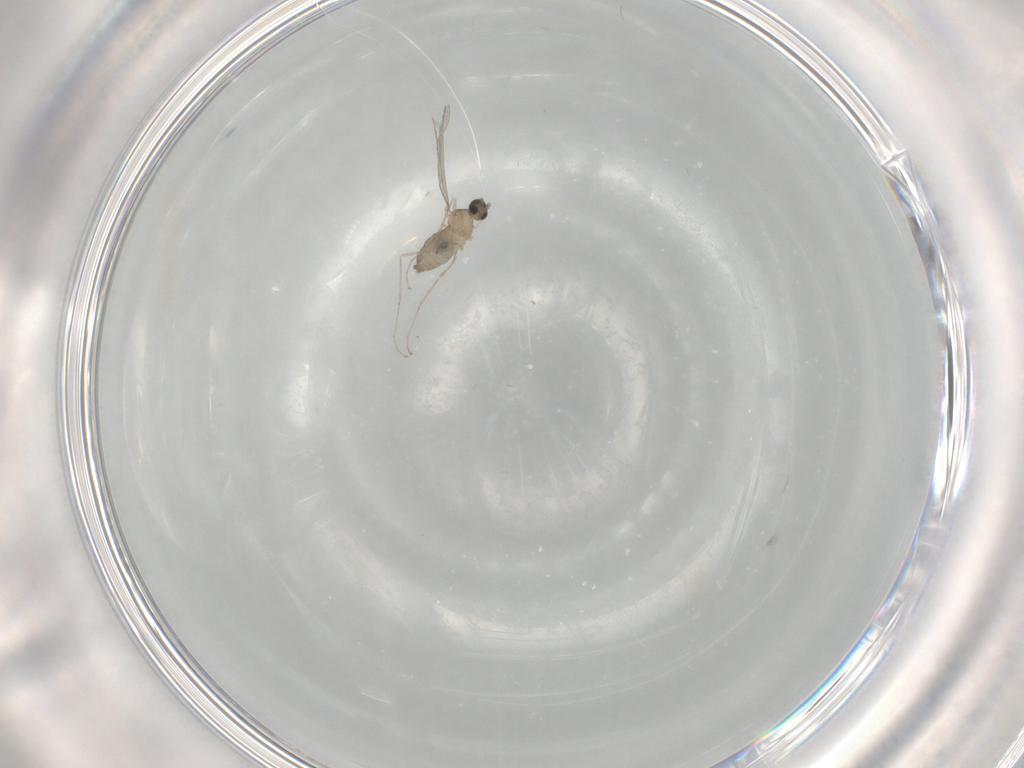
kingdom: Animalia
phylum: Arthropoda
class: Insecta
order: Diptera
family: Cecidomyiidae
